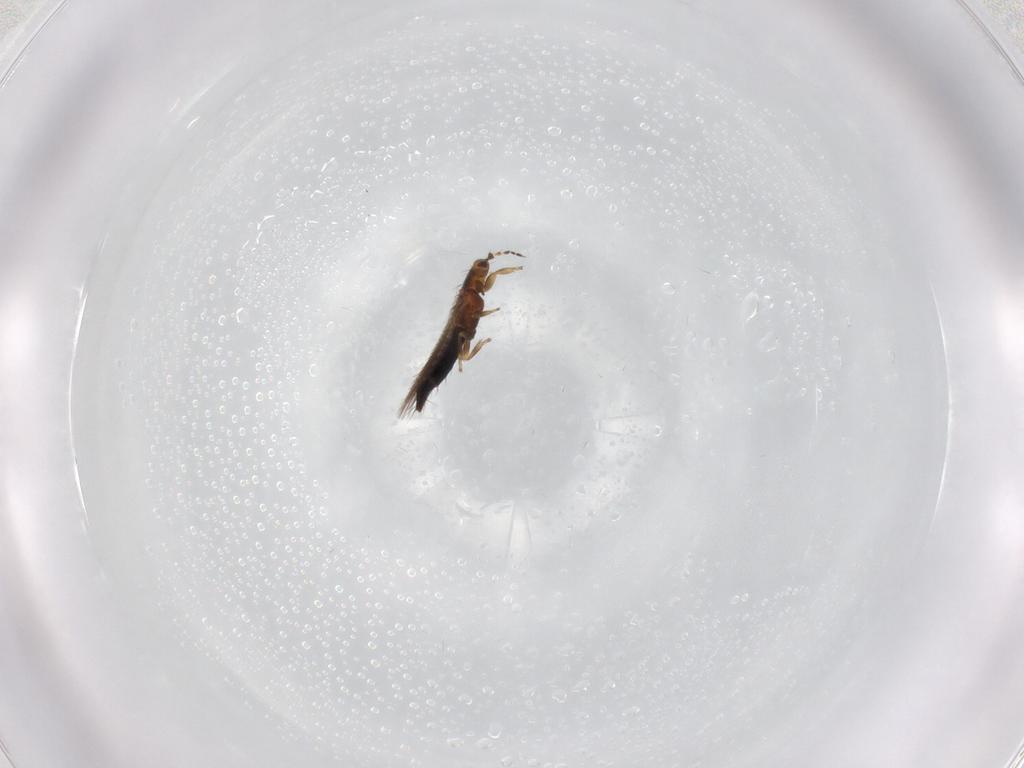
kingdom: Animalia
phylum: Arthropoda
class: Insecta
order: Thysanoptera
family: Thripidae
